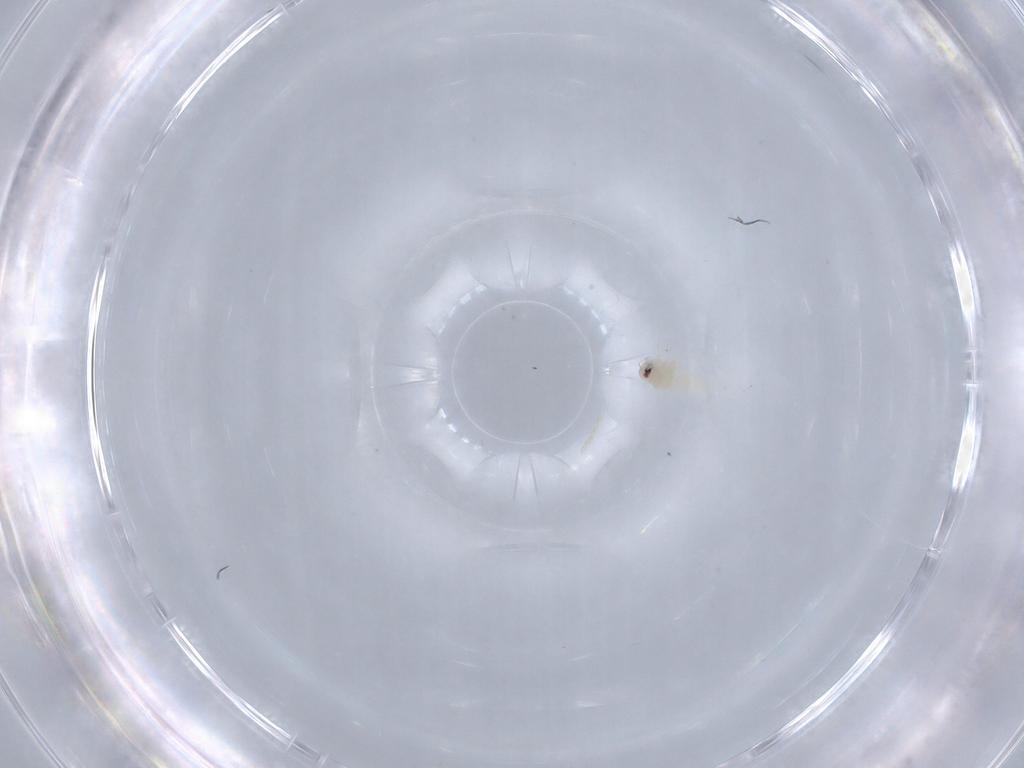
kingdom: Animalia
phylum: Arthropoda
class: Insecta
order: Hemiptera
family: Aleyrodidae
